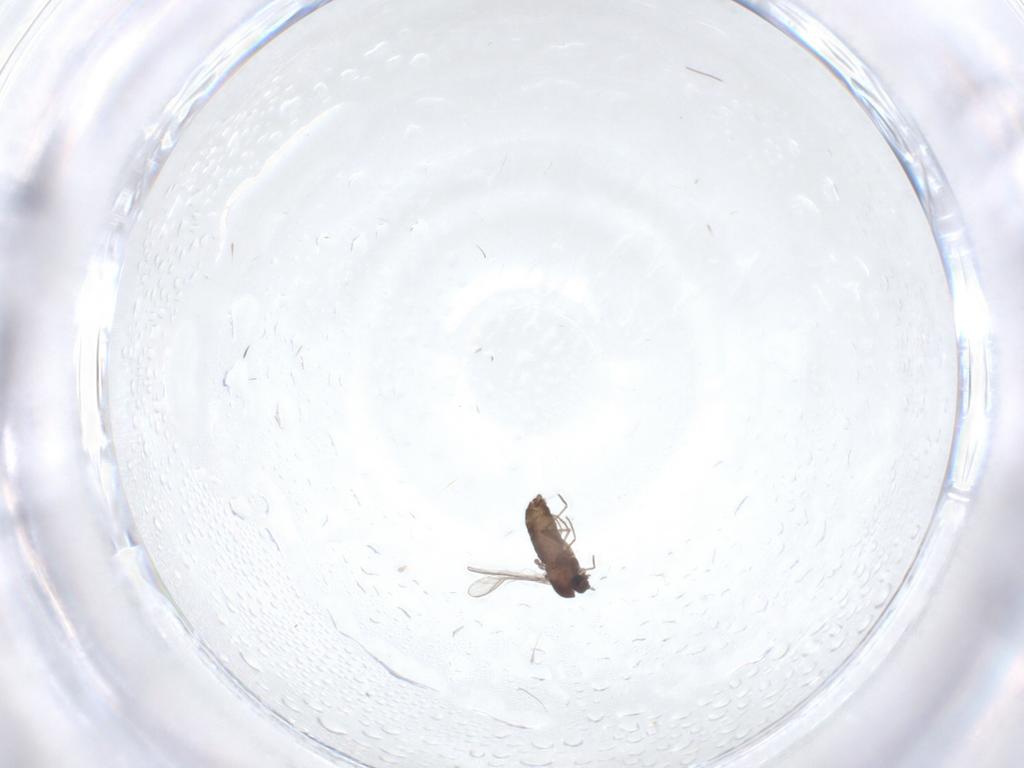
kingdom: Animalia
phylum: Arthropoda
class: Insecta
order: Diptera
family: Chironomidae
